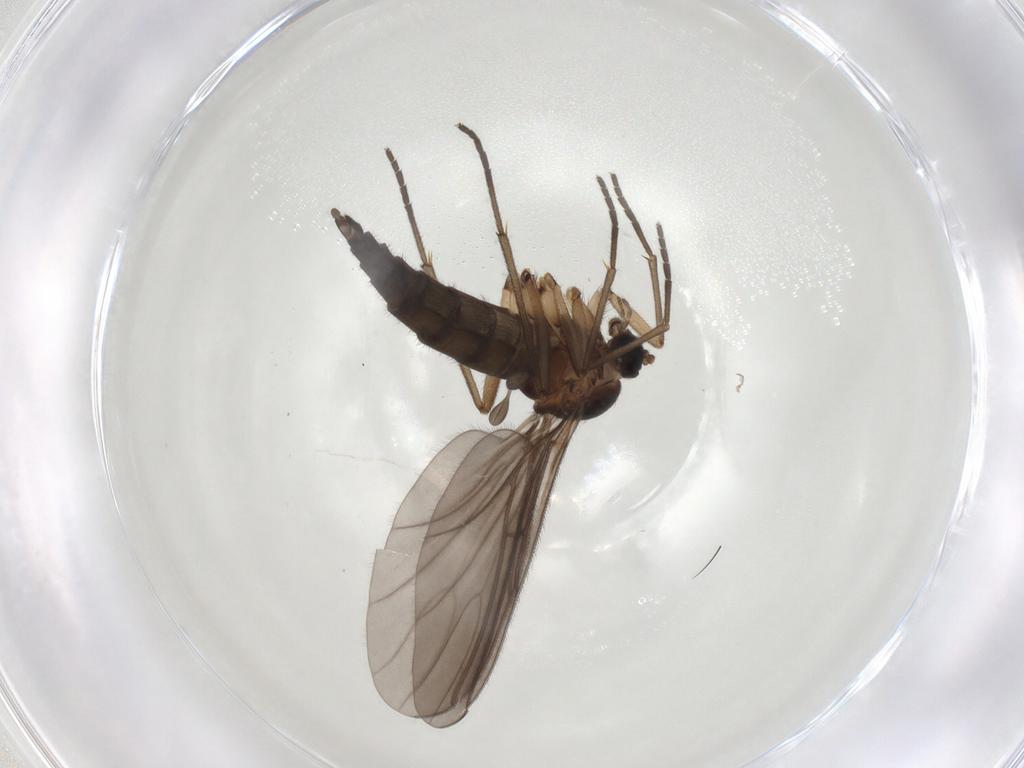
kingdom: Animalia
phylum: Arthropoda
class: Insecta
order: Diptera
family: Sciaridae
